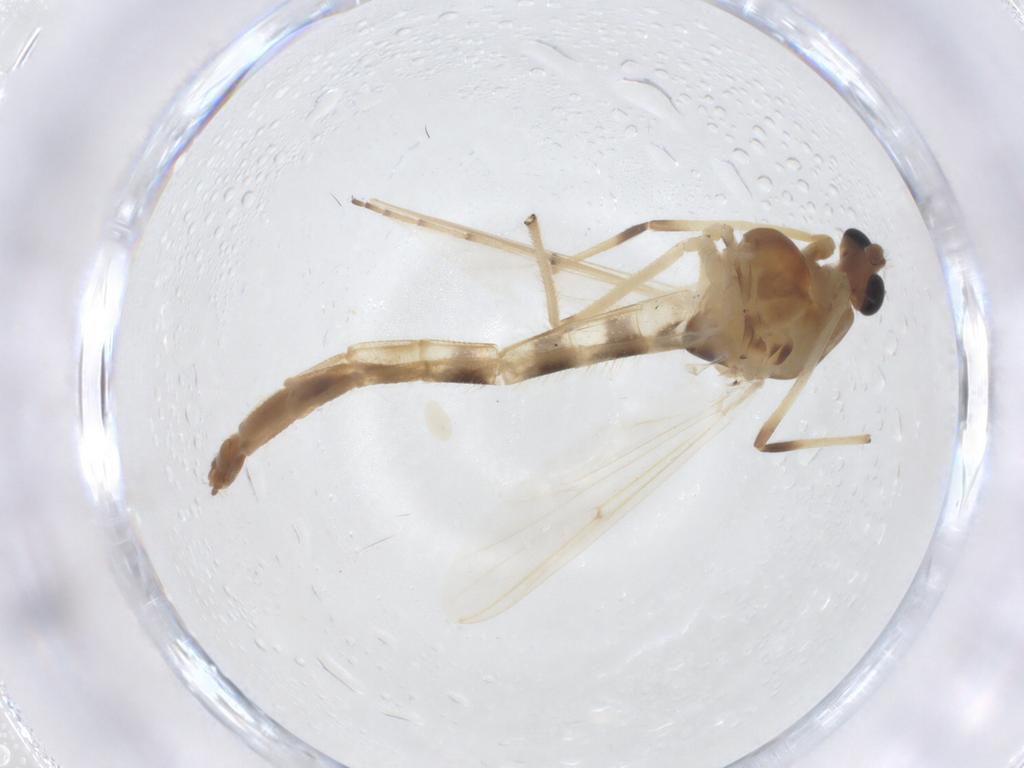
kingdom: Animalia
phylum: Arthropoda
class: Insecta
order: Diptera
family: Chironomidae
